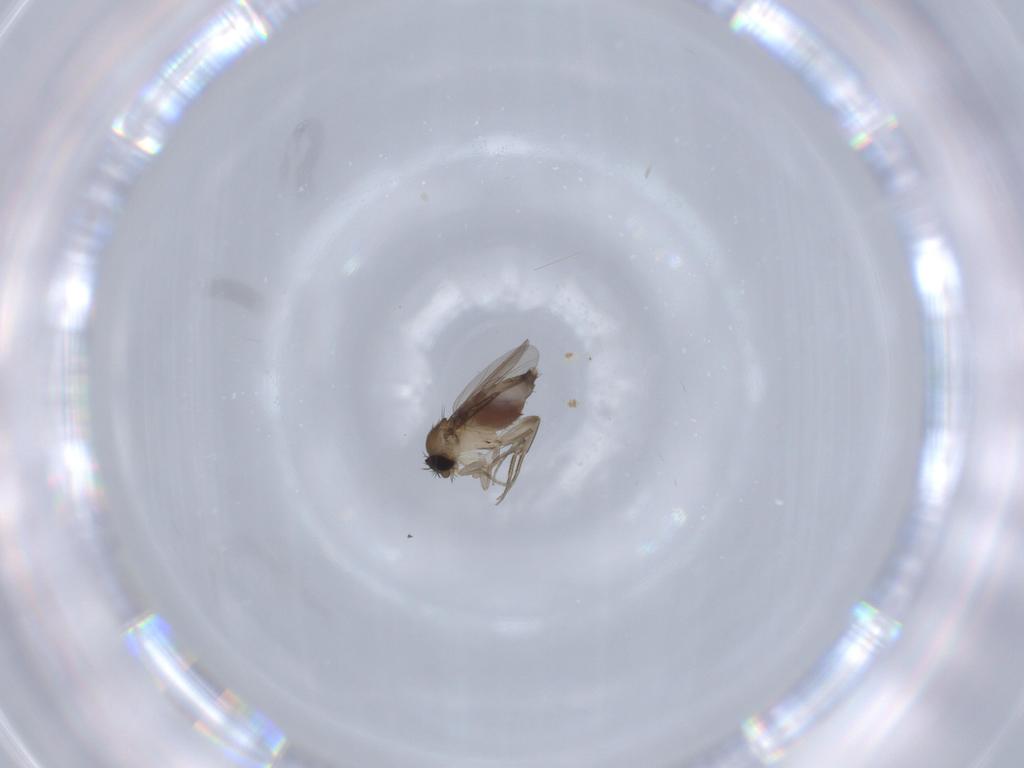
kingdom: Animalia
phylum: Arthropoda
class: Insecta
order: Diptera
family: Phoridae
